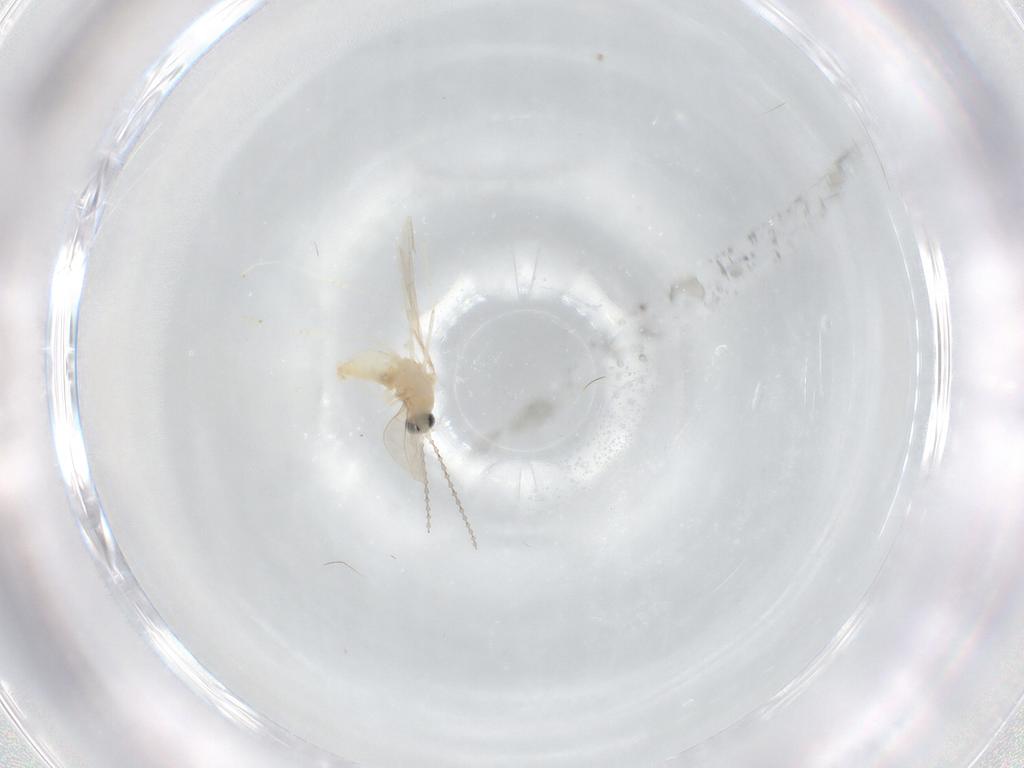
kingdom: Animalia
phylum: Arthropoda
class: Insecta
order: Diptera
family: Cecidomyiidae
